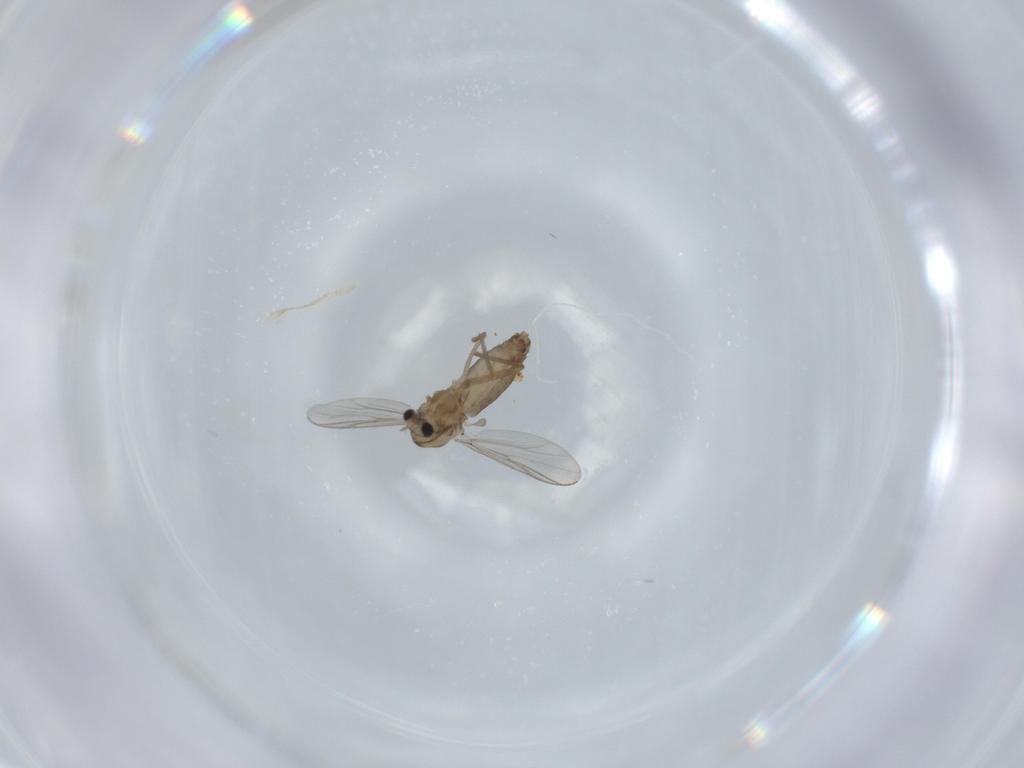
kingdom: Animalia
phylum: Arthropoda
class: Insecta
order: Diptera
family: Chironomidae
